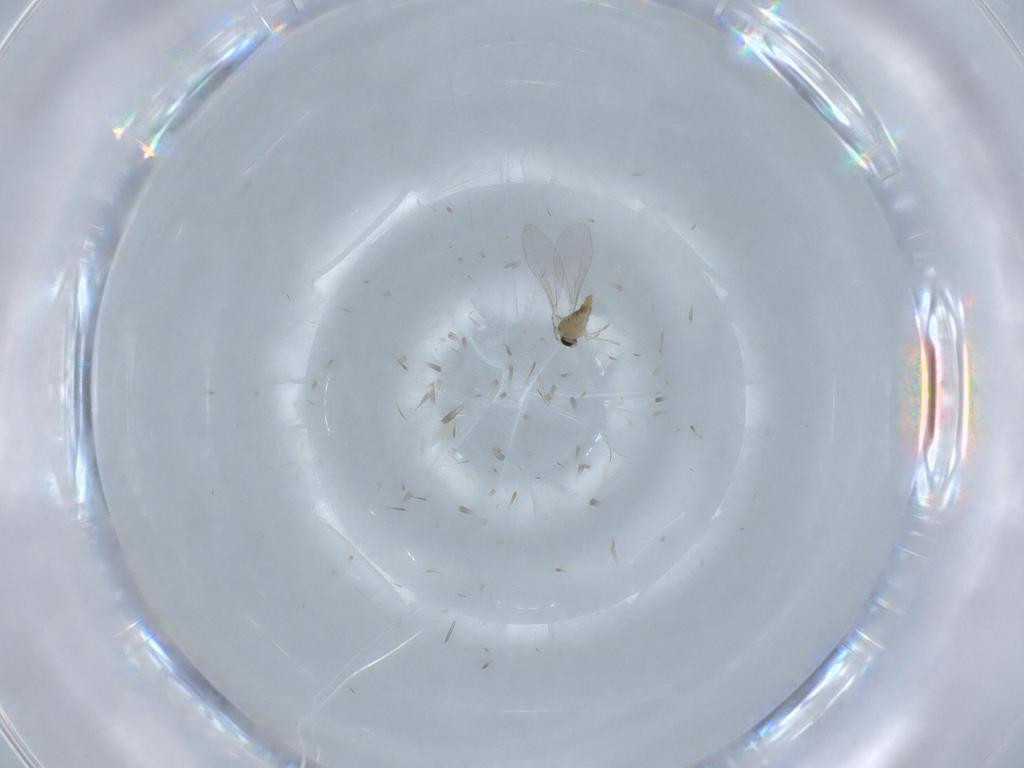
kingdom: Animalia
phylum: Arthropoda
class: Insecta
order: Diptera
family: Cecidomyiidae
